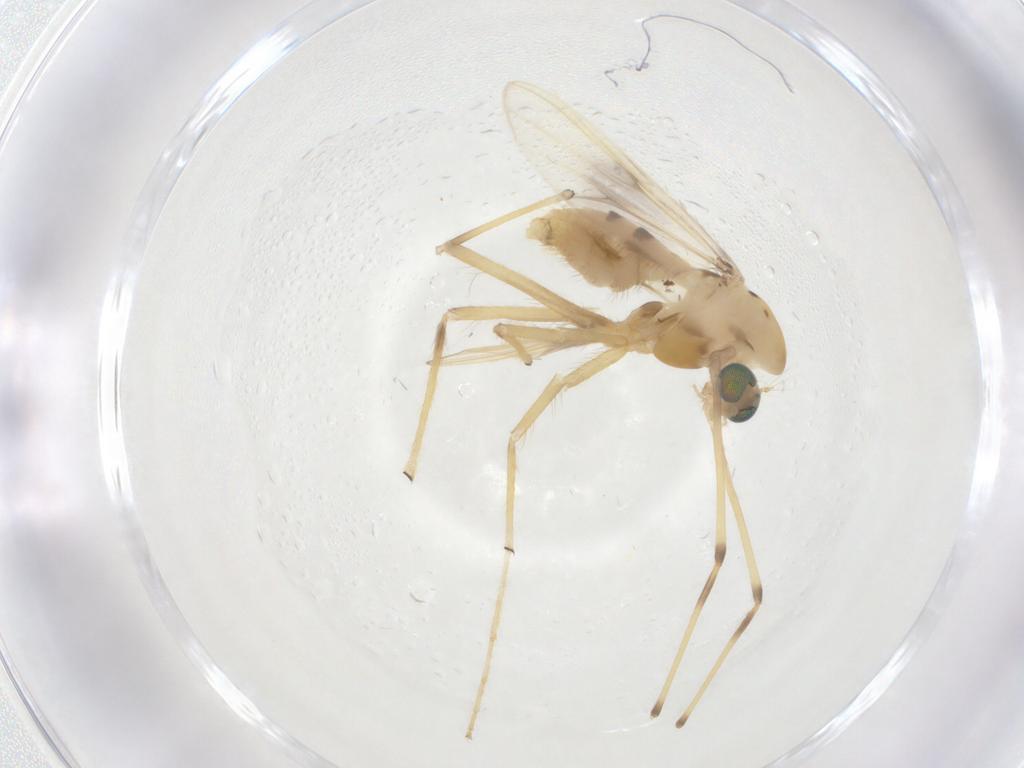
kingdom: Animalia
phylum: Arthropoda
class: Insecta
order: Diptera
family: Chironomidae
